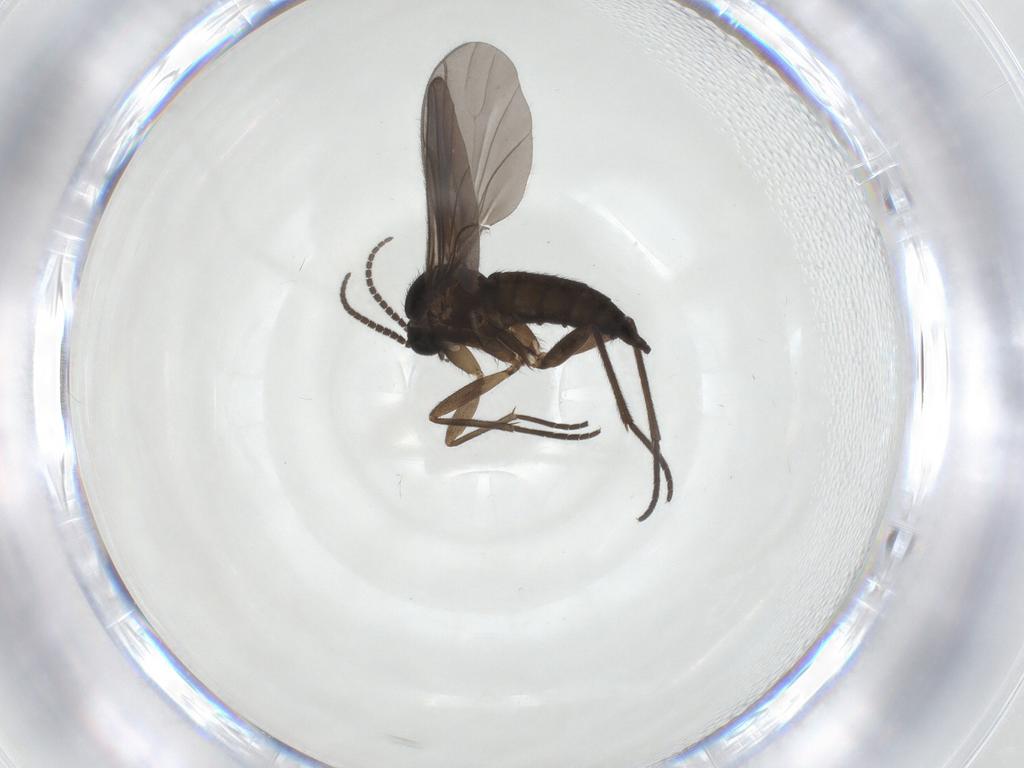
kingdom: Animalia
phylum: Arthropoda
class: Insecta
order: Diptera
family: Sciaridae
